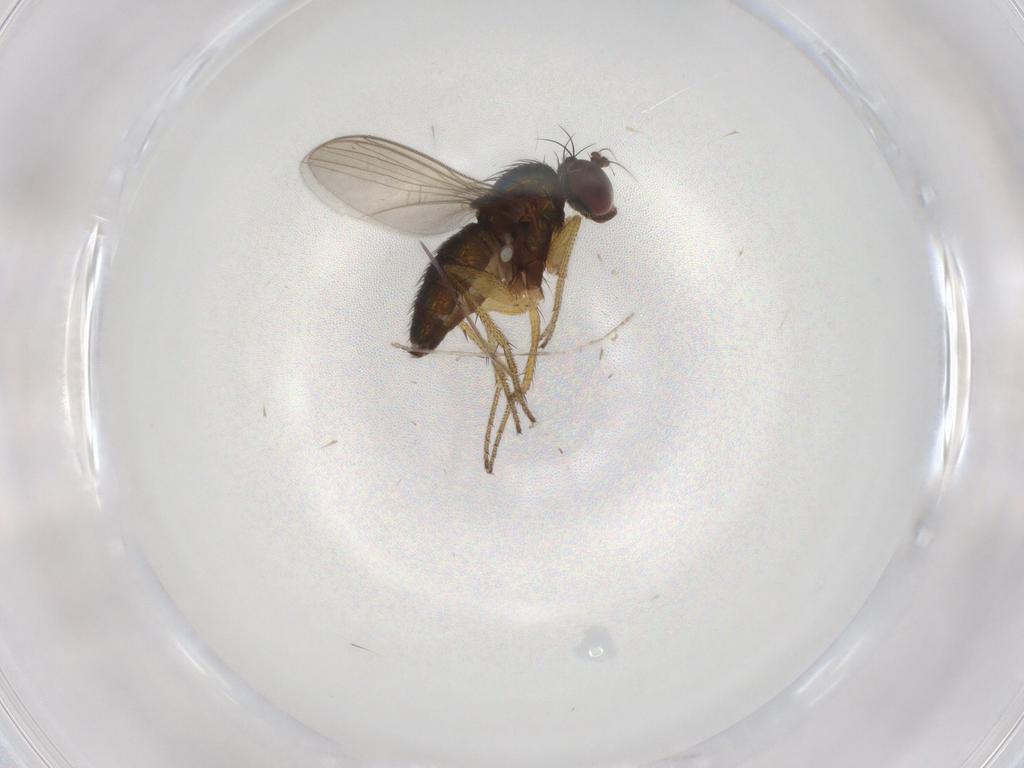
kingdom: Animalia
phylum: Arthropoda
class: Insecta
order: Diptera
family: Cecidomyiidae
